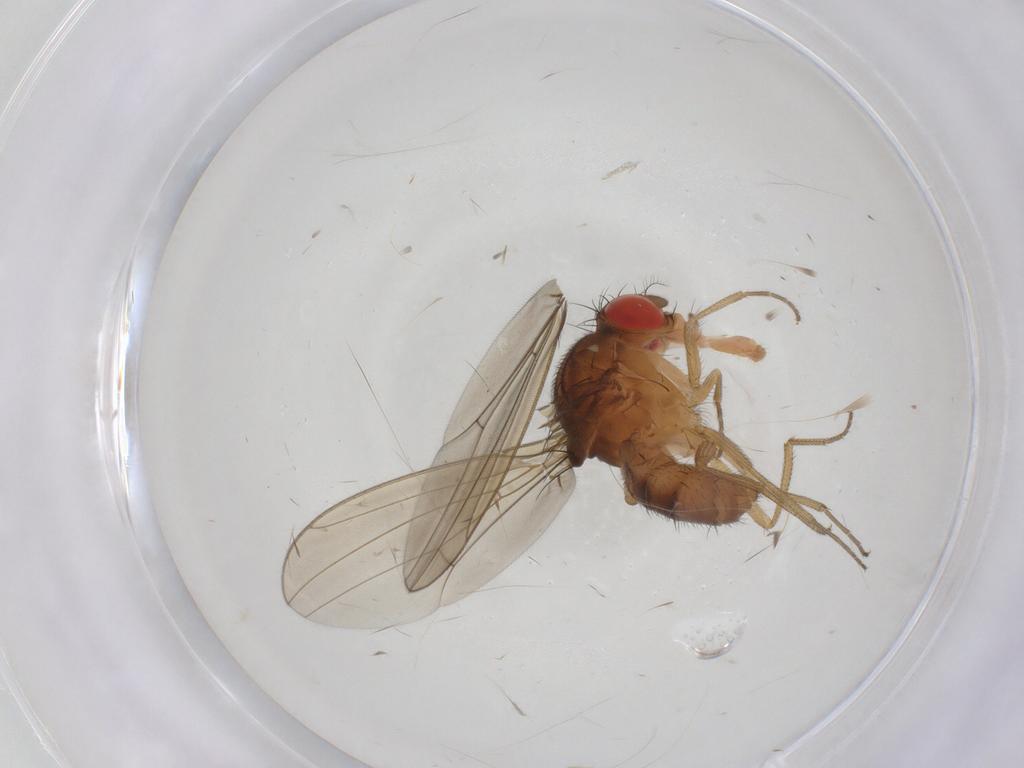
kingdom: Animalia
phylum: Arthropoda
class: Insecta
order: Diptera
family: Drosophilidae
